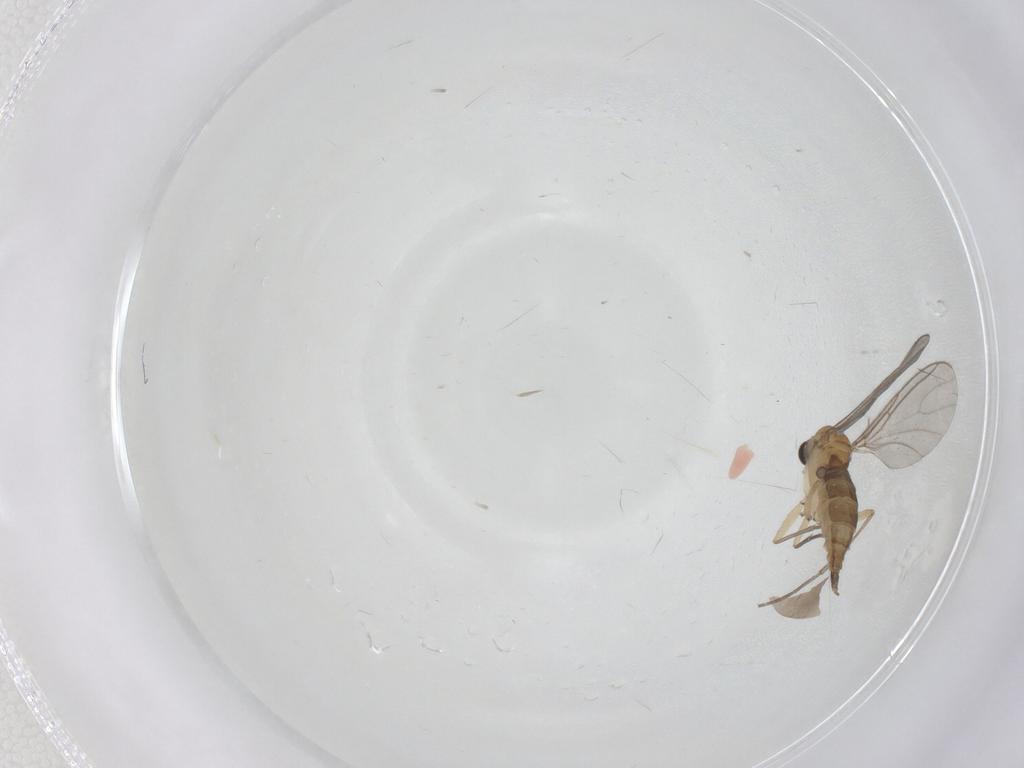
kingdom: Animalia
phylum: Arthropoda
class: Insecta
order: Diptera
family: Sciaridae
